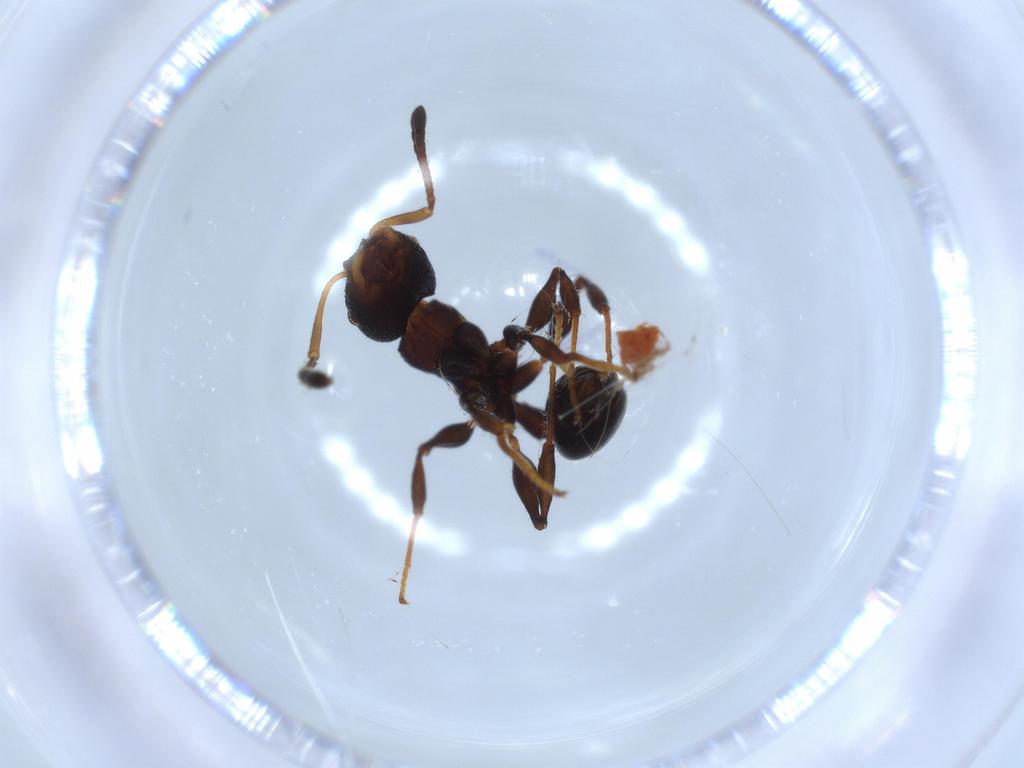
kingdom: Animalia
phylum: Arthropoda
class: Insecta
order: Hymenoptera
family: Formicidae
